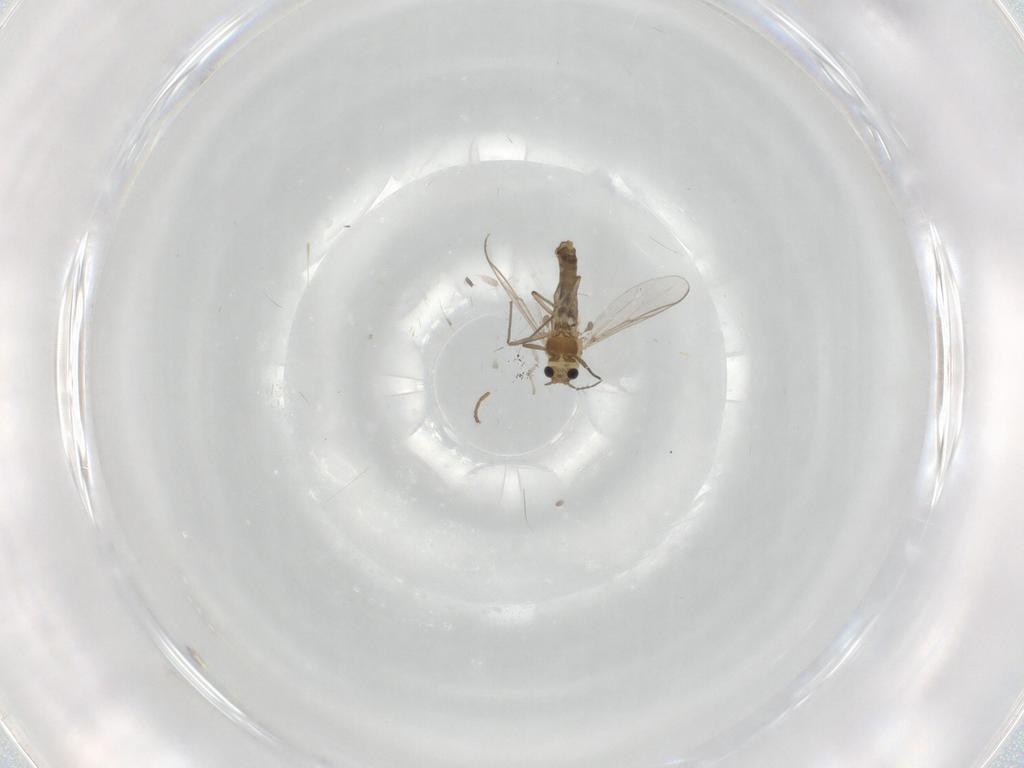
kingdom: Animalia
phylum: Arthropoda
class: Insecta
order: Diptera
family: Chironomidae
